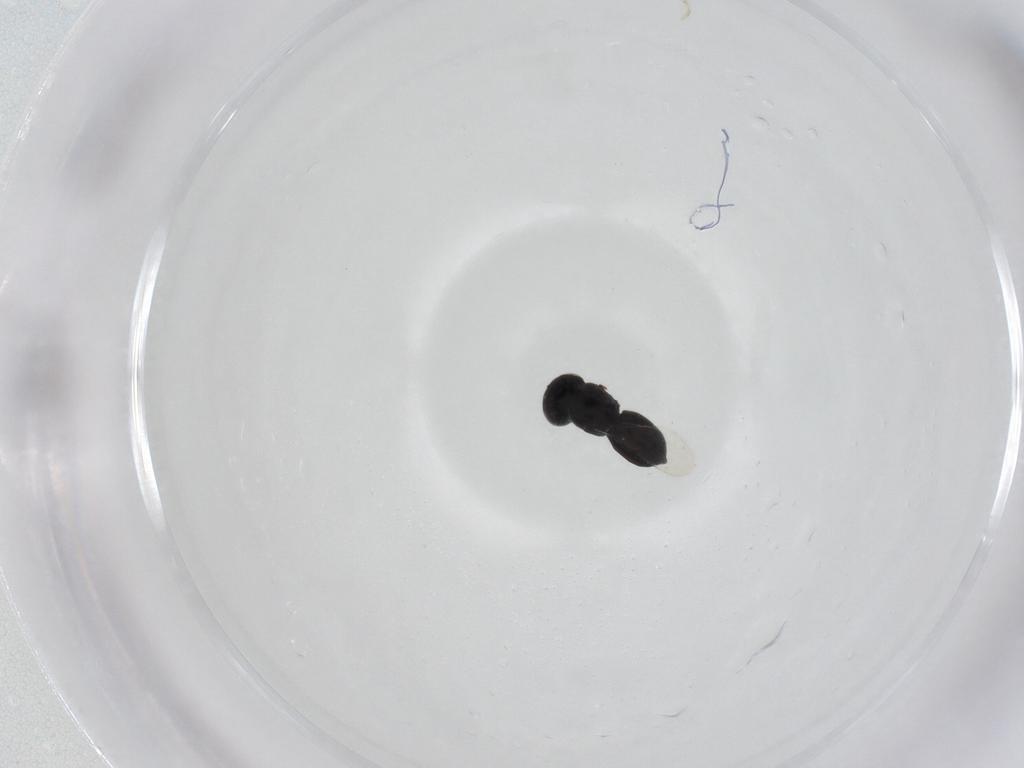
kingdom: Animalia
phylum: Arthropoda
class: Insecta
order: Hymenoptera
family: Scelionidae
